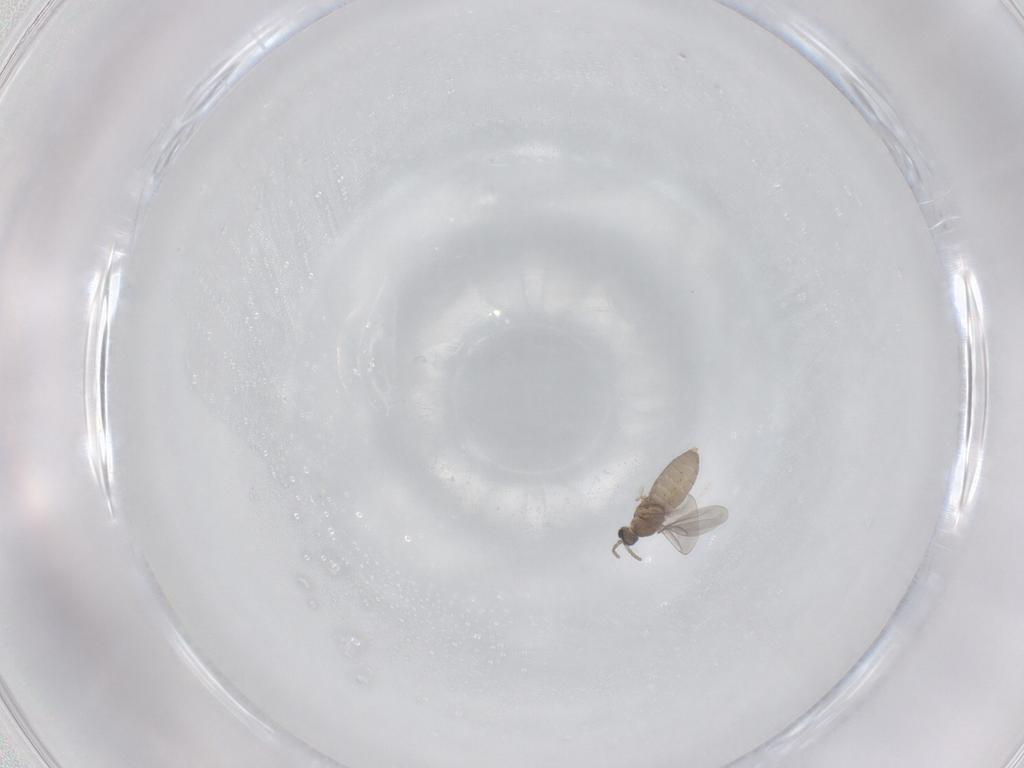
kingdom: Animalia
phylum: Arthropoda
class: Insecta
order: Diptera
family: Cecidomyiidae
